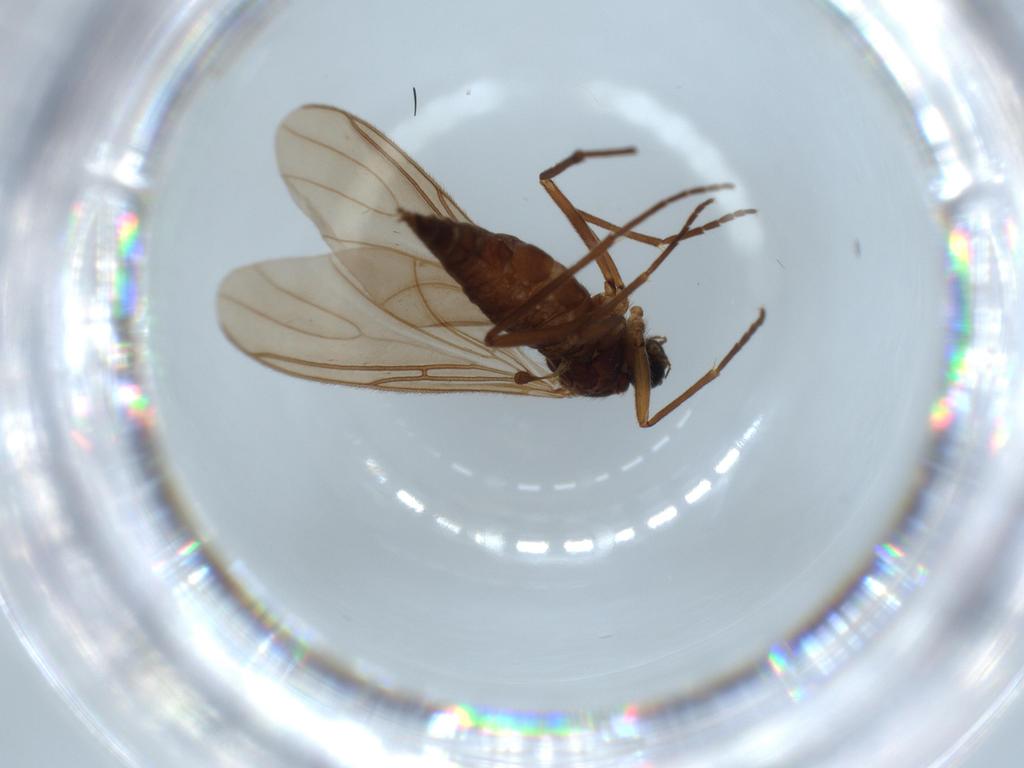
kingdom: Animalia
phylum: Arthropoda
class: Insecta
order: Diptera
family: Sciaridae
